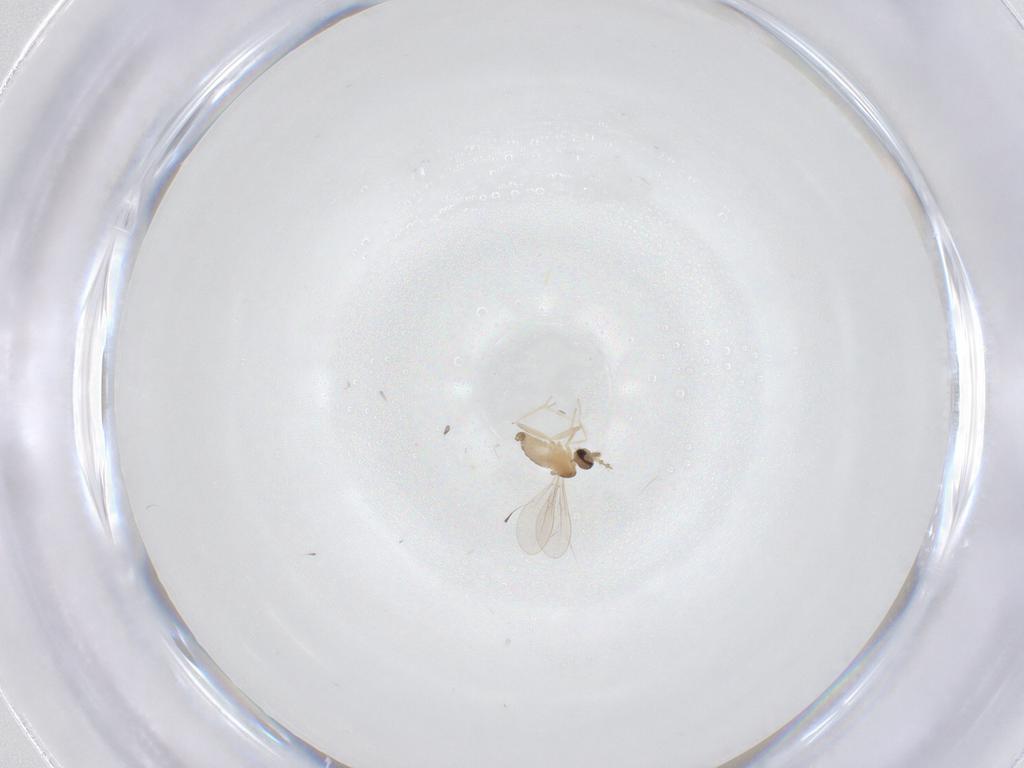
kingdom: Animalia
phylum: Arthropoda
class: Insecta
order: Diptera
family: Cecidomyiidae
